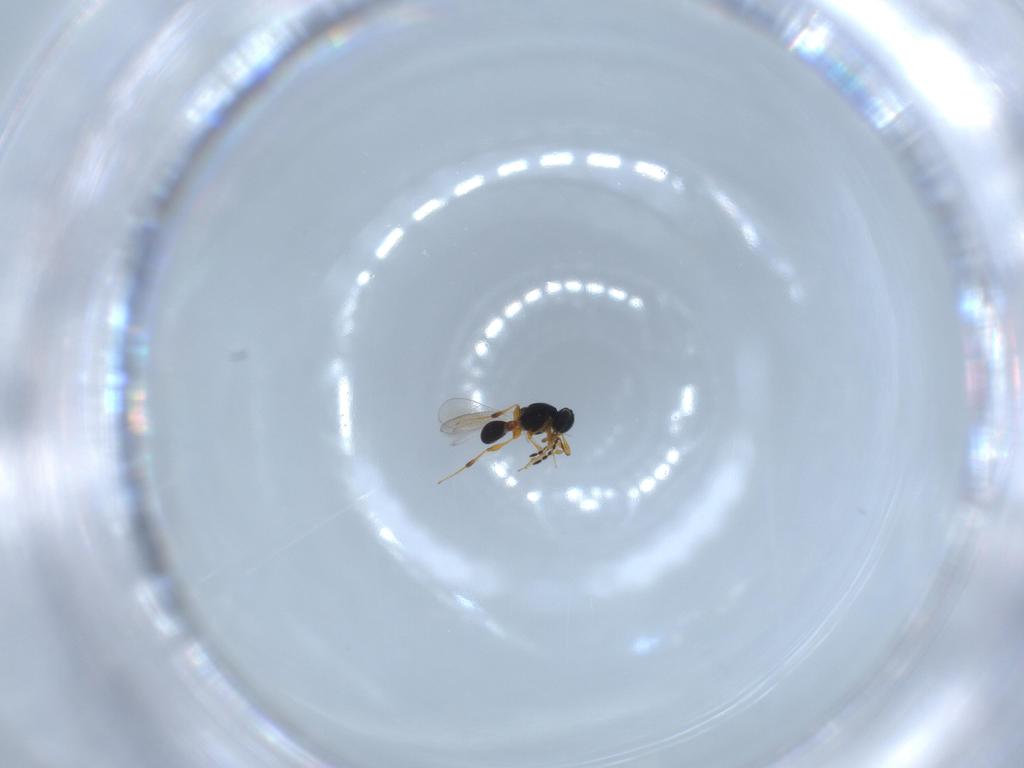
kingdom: Animalia
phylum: Arthropoda
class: Insecta
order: Hymenoptera
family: Platygastridae
